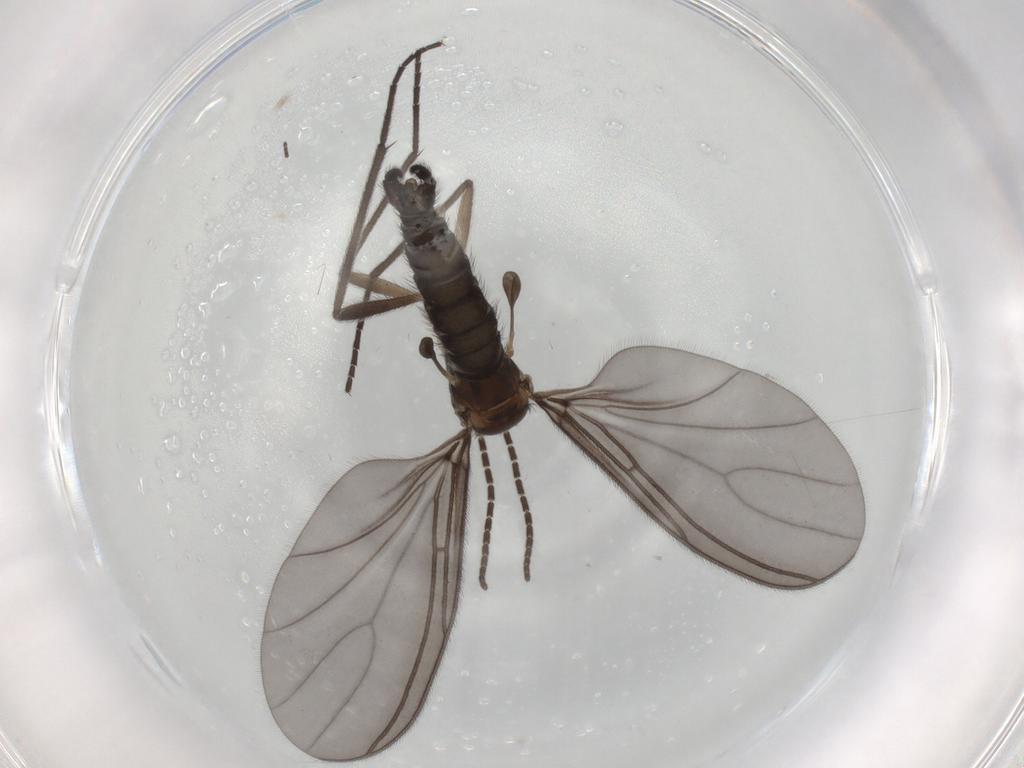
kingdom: Animalia
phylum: Arthropoda
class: Insecta
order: Diptera
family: Sciaridae
